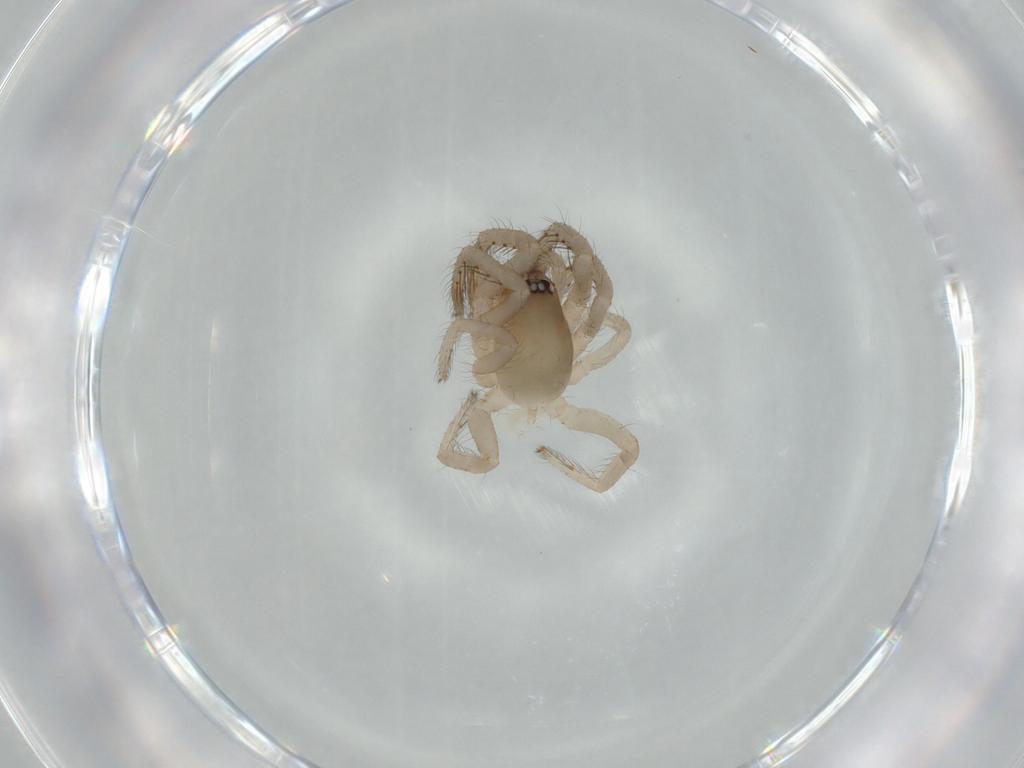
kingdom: Animalia
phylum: Arthropoda
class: Arachnida
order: Araneae
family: Segestriidae
